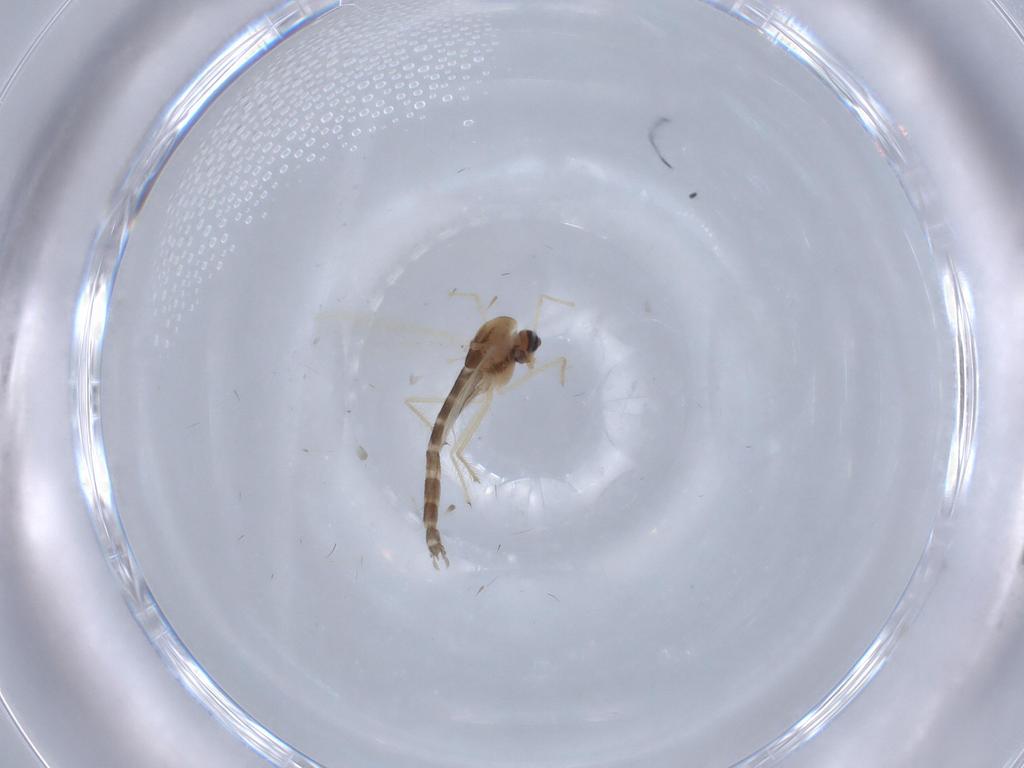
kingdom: Animalia
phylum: Arthropoda
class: Insecta
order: Diptera
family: Chironomidae
